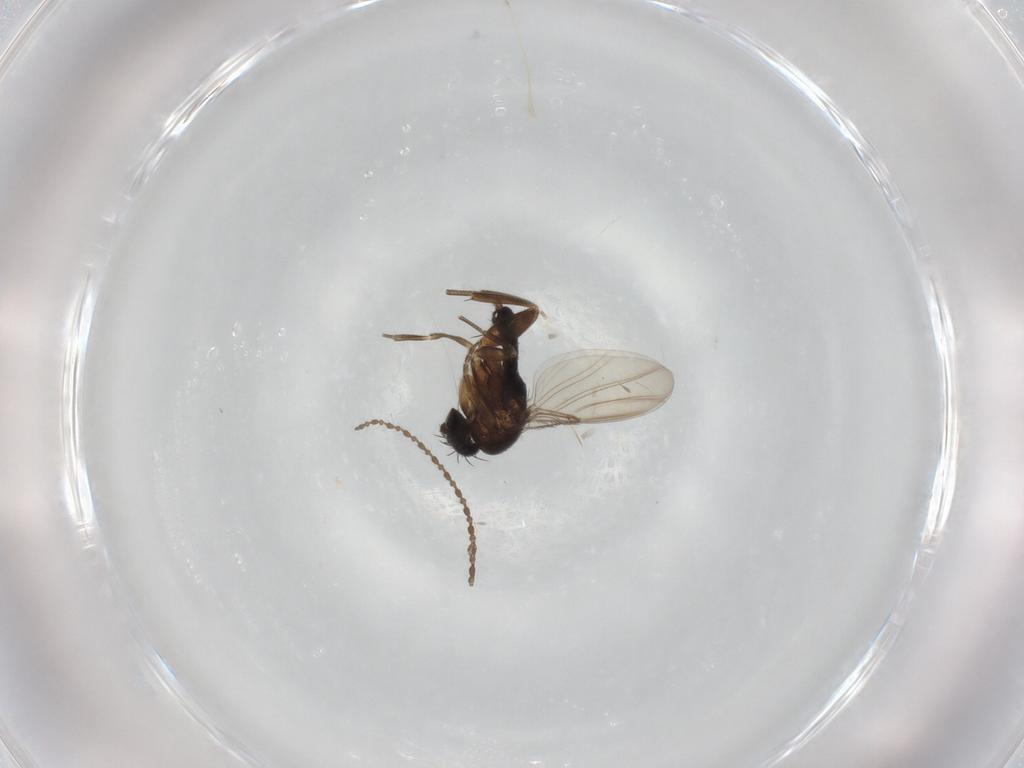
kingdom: Animalia
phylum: Arthropoda
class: Insecta
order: Diptera
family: Cecidomyiidae
